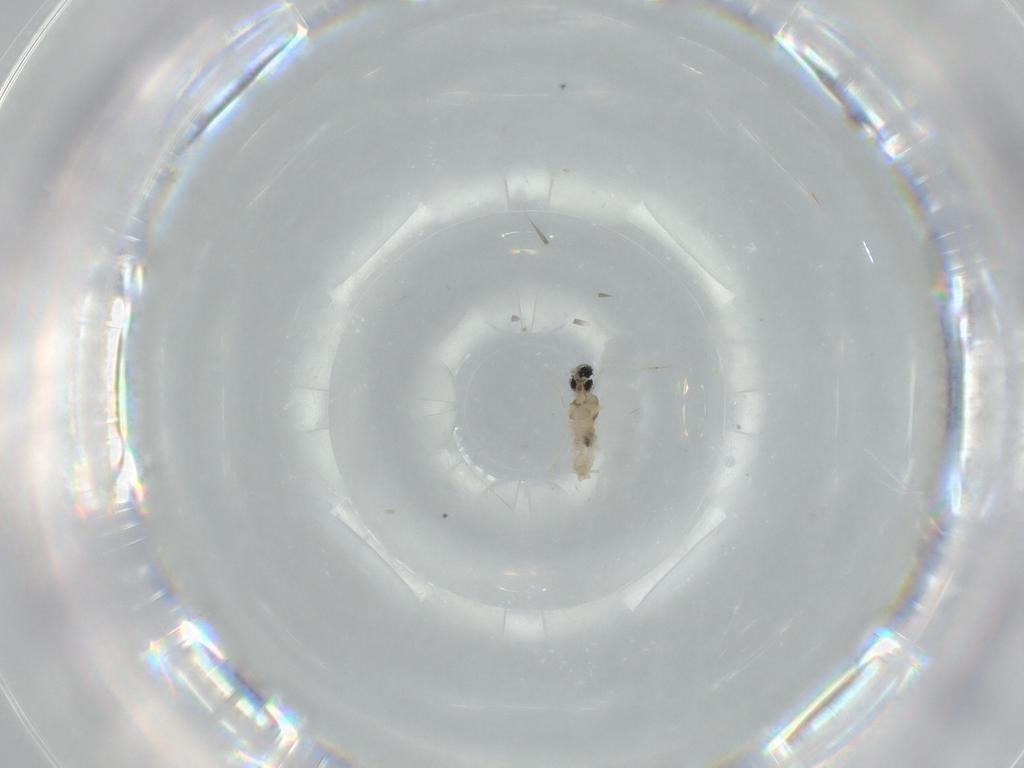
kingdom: Animalia
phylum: Arthropoda
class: Insecta
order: Diptera
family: Cecidomyiidae
